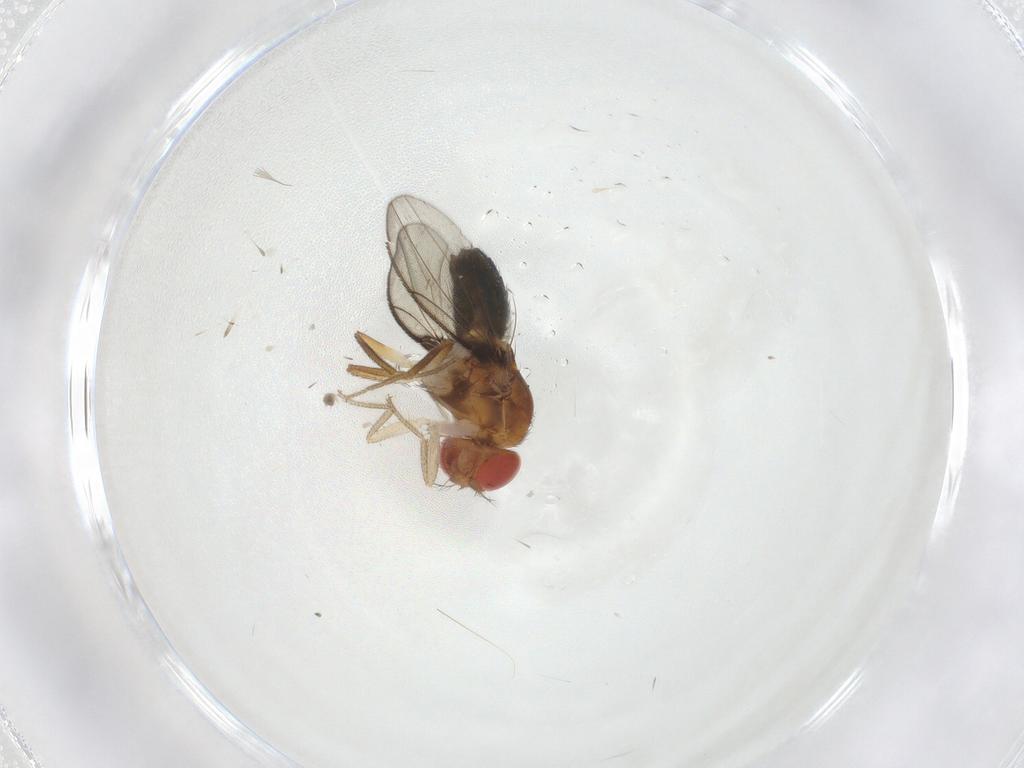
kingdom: Animalia
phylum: Arthropoda
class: Insecta
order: Diptera
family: Drosophilidae
